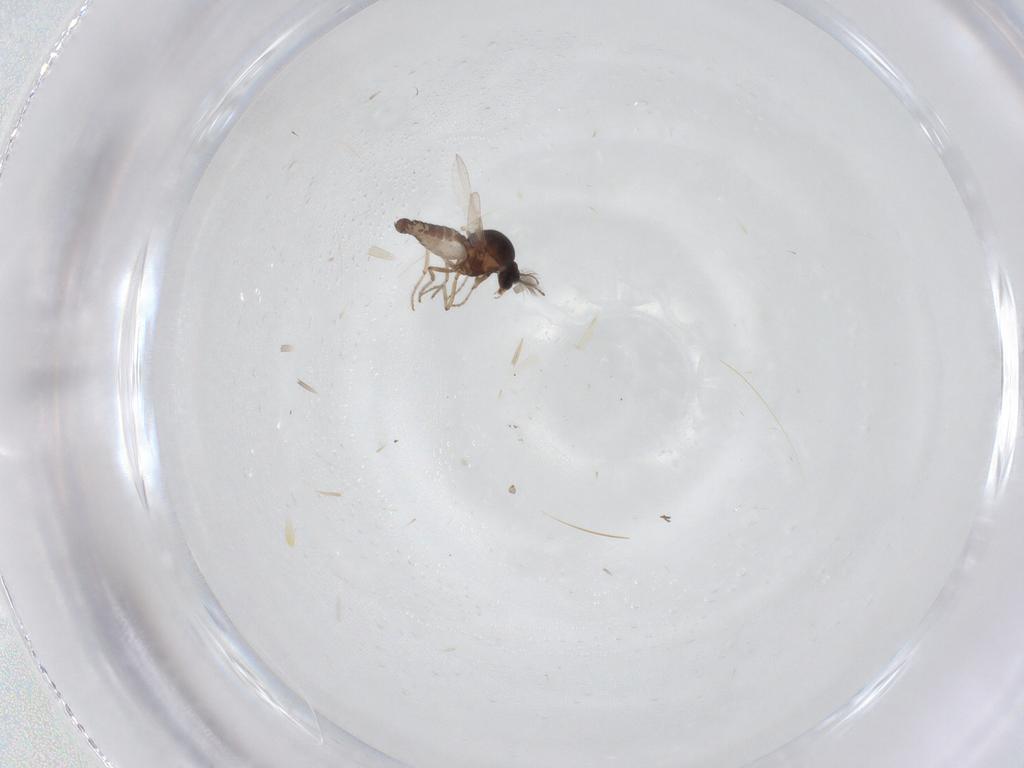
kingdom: Animalia
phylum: Arthropoda
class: Insecta
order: Diptera
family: Ceratopogonidae
